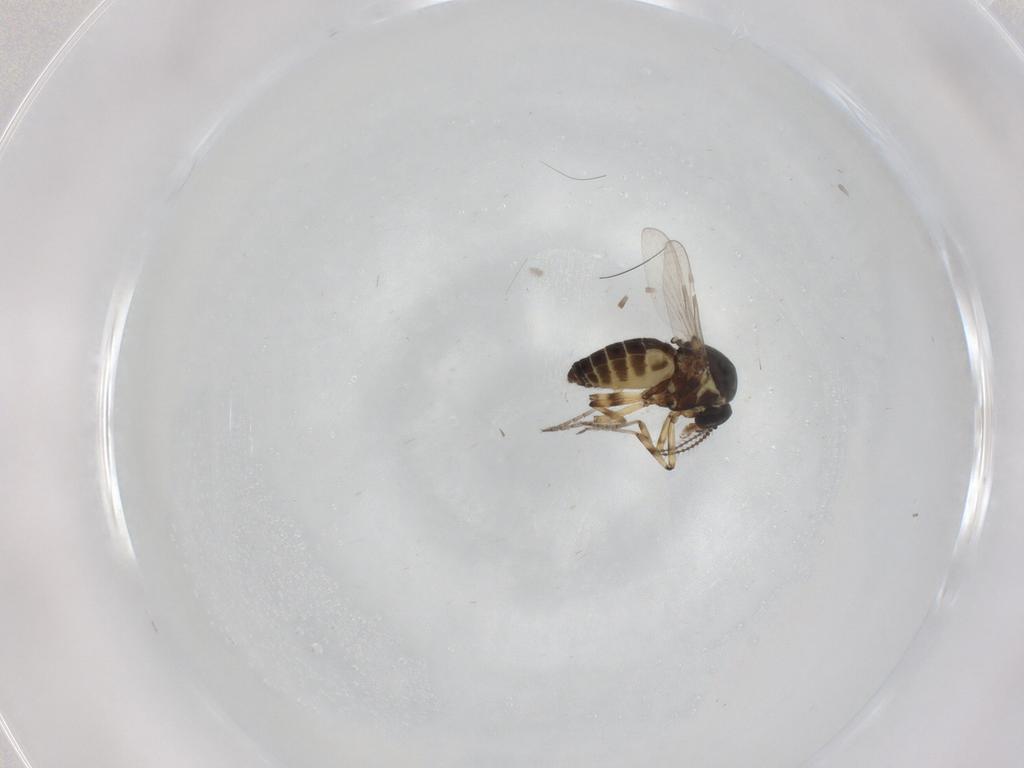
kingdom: Animalia
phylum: Arthropoda
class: Insecta
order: Diptera
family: Ceratopogonidae
